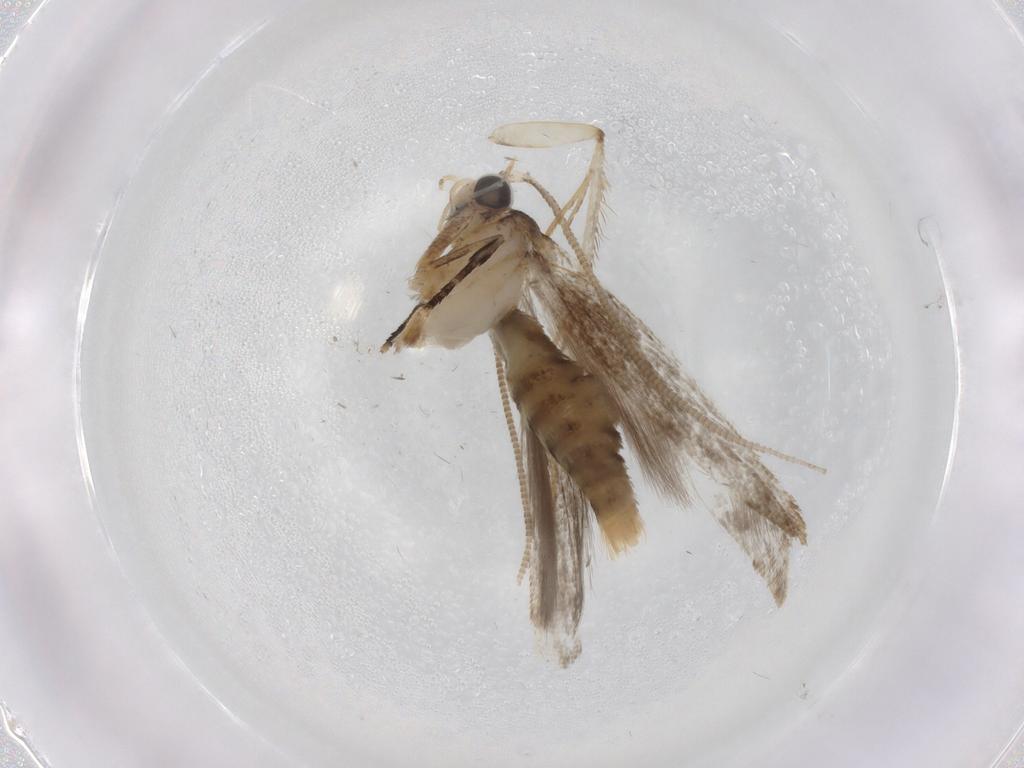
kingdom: Animalia
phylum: Arthropoda
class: Insecta
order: Lepidoptera
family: Tineidae
